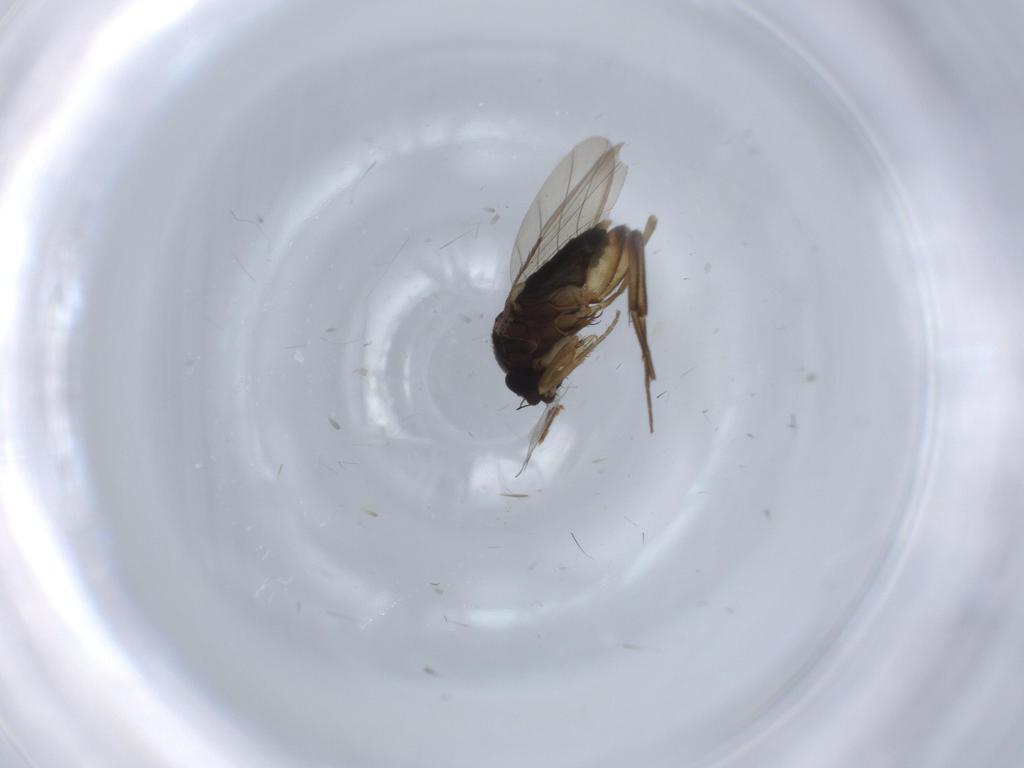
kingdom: Animalia
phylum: Arthropoda
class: Insecta
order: Diptera
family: Phoridae
